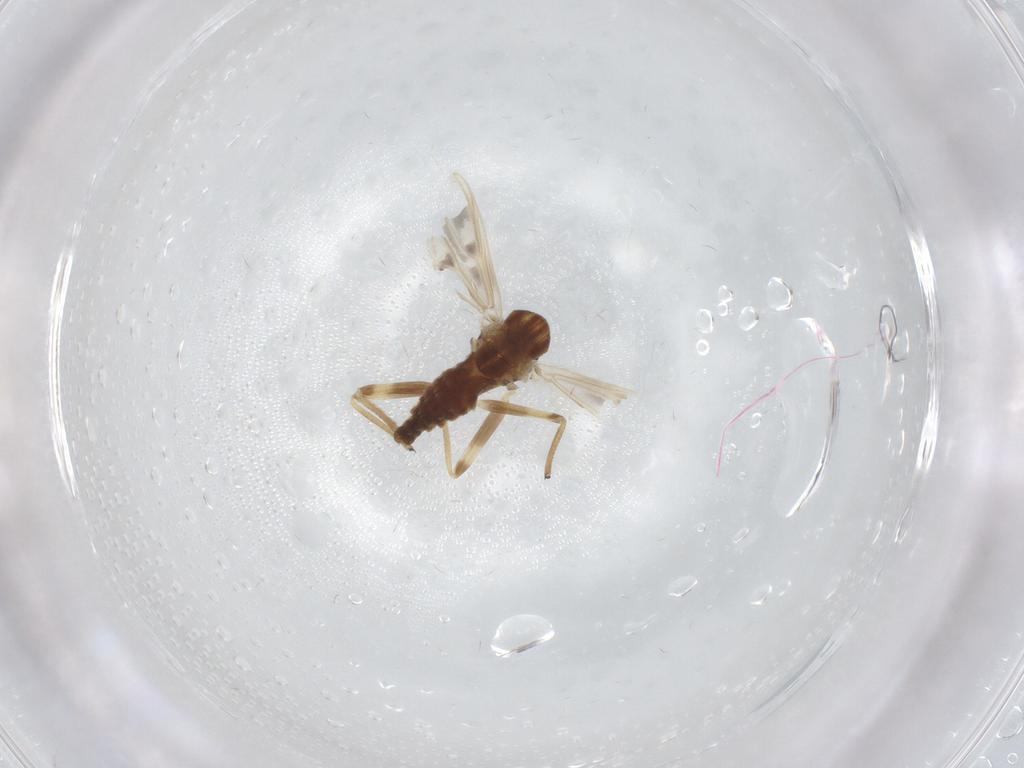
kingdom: Animalia
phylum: Arthropoda
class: Insecta
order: Diptera
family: Chironomidae
